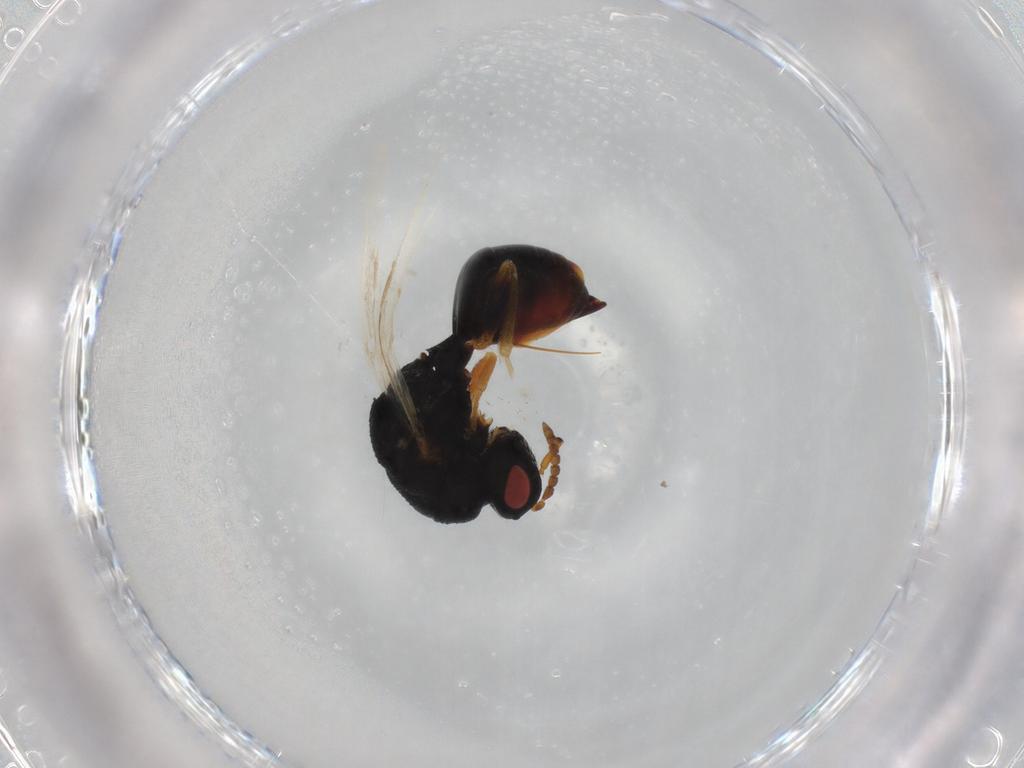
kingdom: Animalia
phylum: Arthropoda
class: Insecta
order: Hymenoptera
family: Eurytomidae
